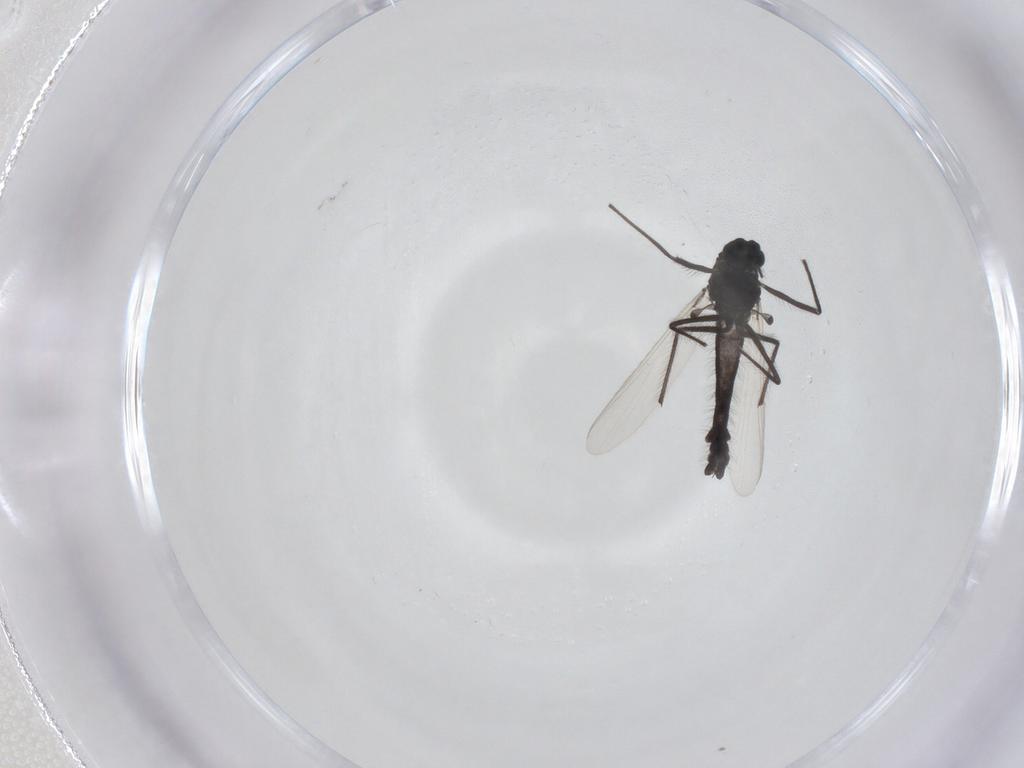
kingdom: Animalia
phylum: Arthropoda
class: Insecta
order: Diptera
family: Chironomidae
